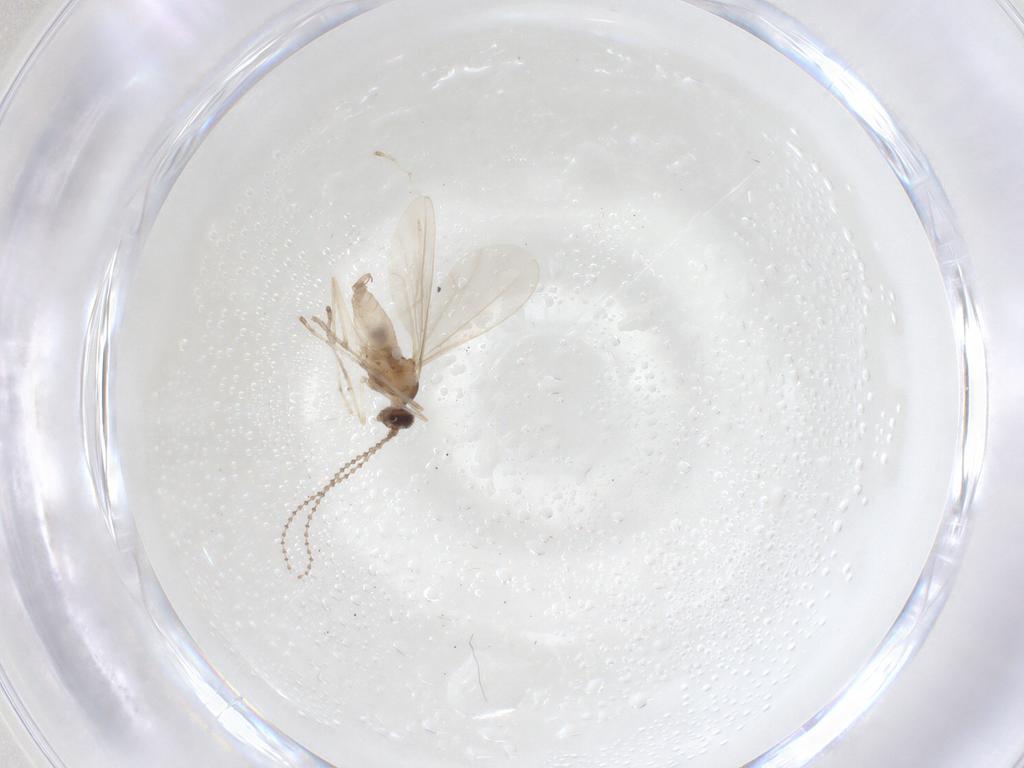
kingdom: Animalia
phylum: Arthropoda
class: Insecta
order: Diptera
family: Cecidomyiidae
